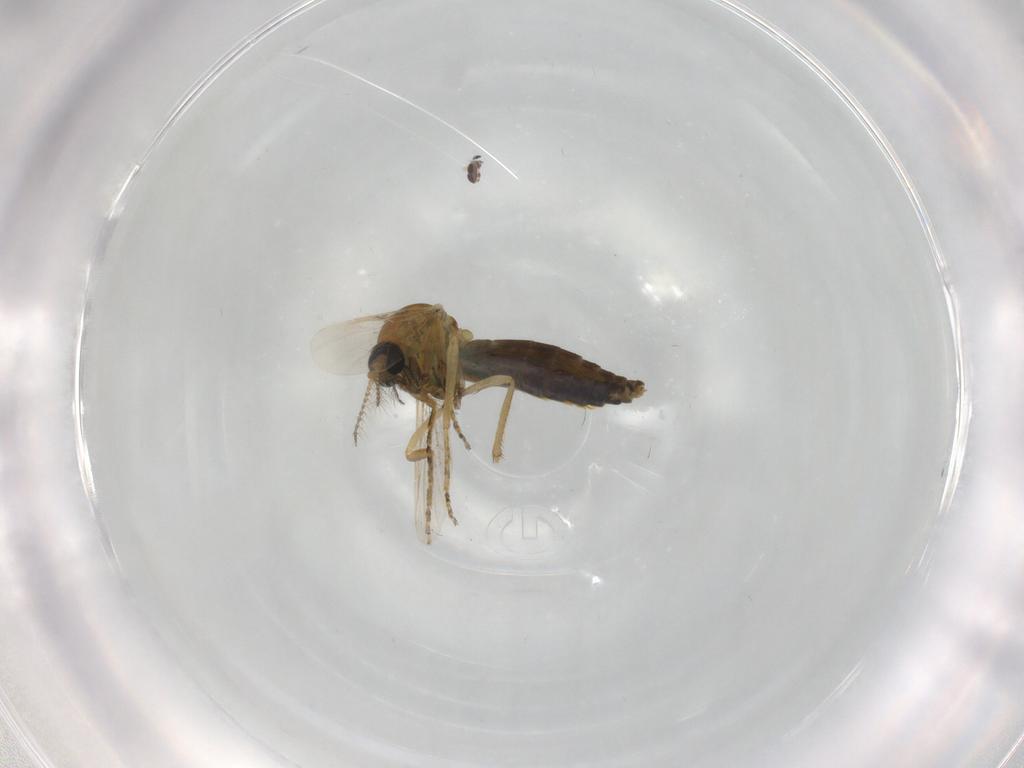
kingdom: Animalia
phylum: Arthropoda
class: Insecta
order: Diptera
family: Ceratopogonidae
